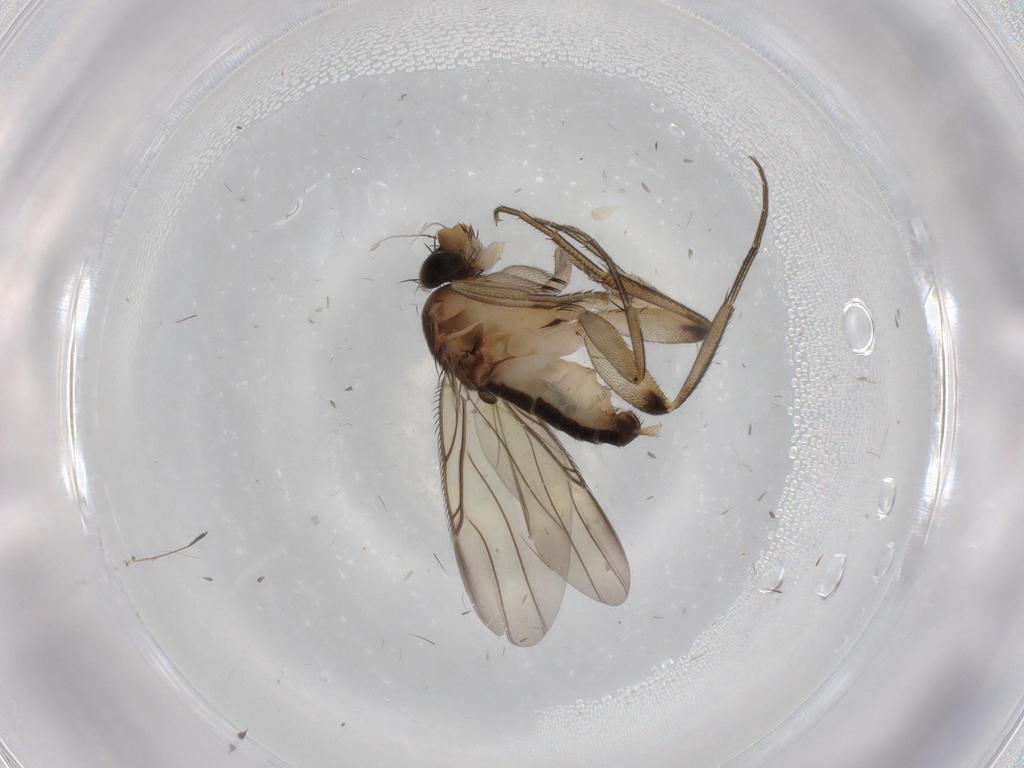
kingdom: Animalia
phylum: Arthropoda
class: Insecta
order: Diptera
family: Phoridae
